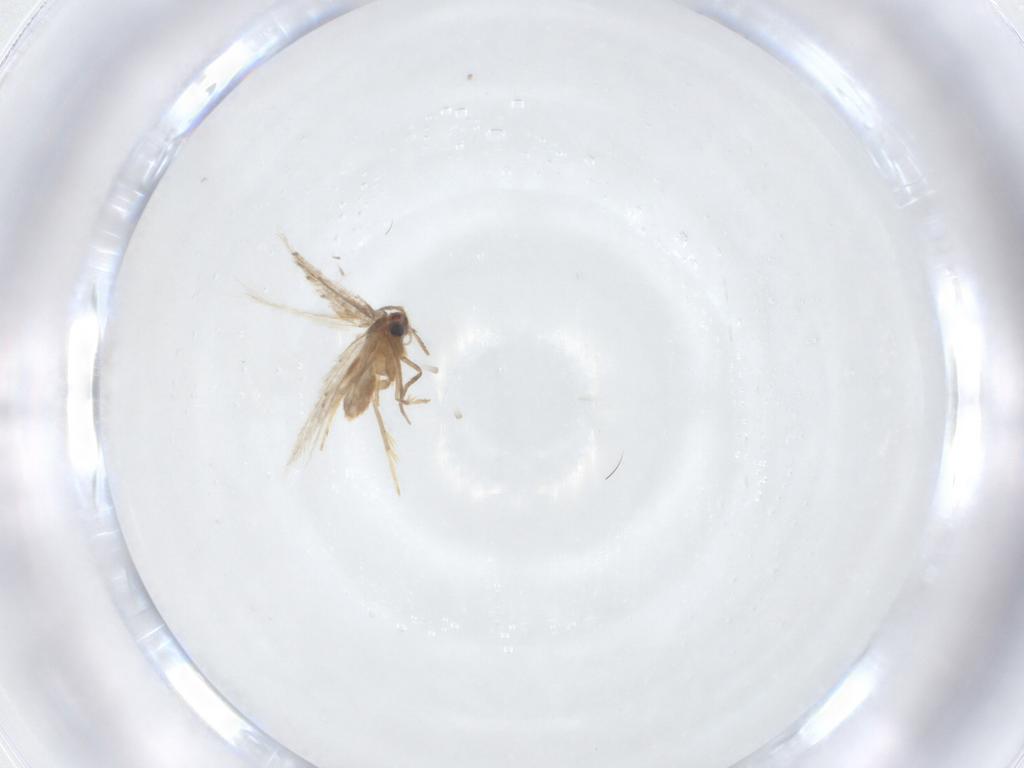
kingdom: Animalia
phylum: Arthropoda
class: Insecta
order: Lepidoptera
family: Nepticulidae
